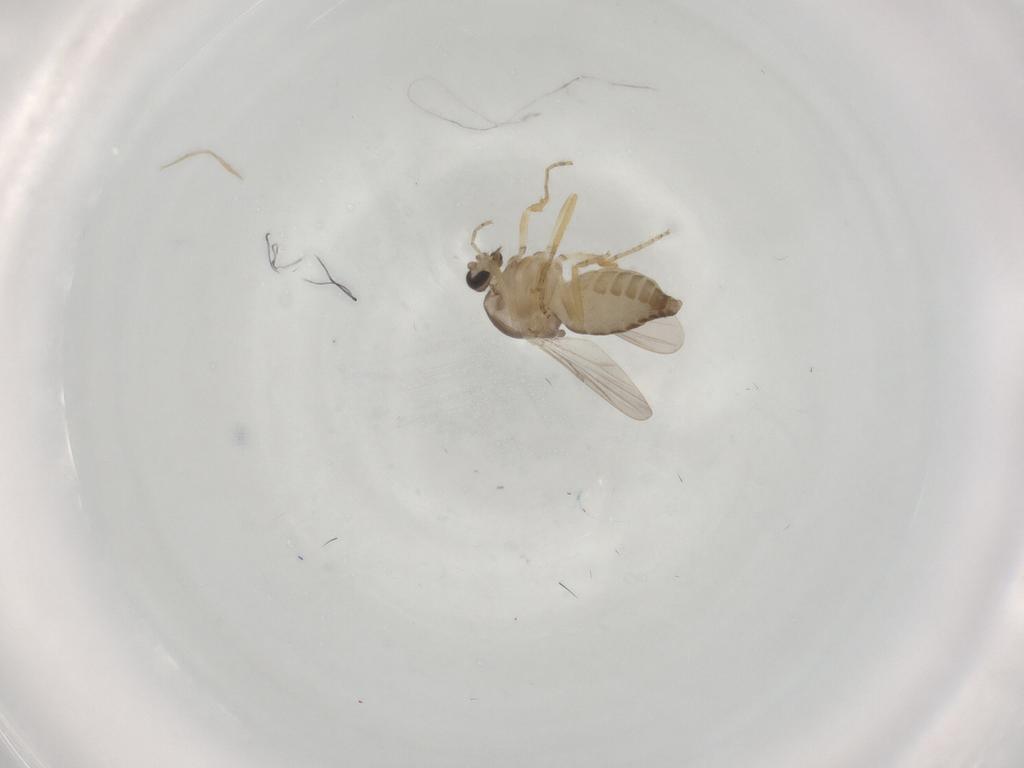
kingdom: Animalia
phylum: Arthropoda
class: Insecta
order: Diptera
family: Ceratopogonidae
